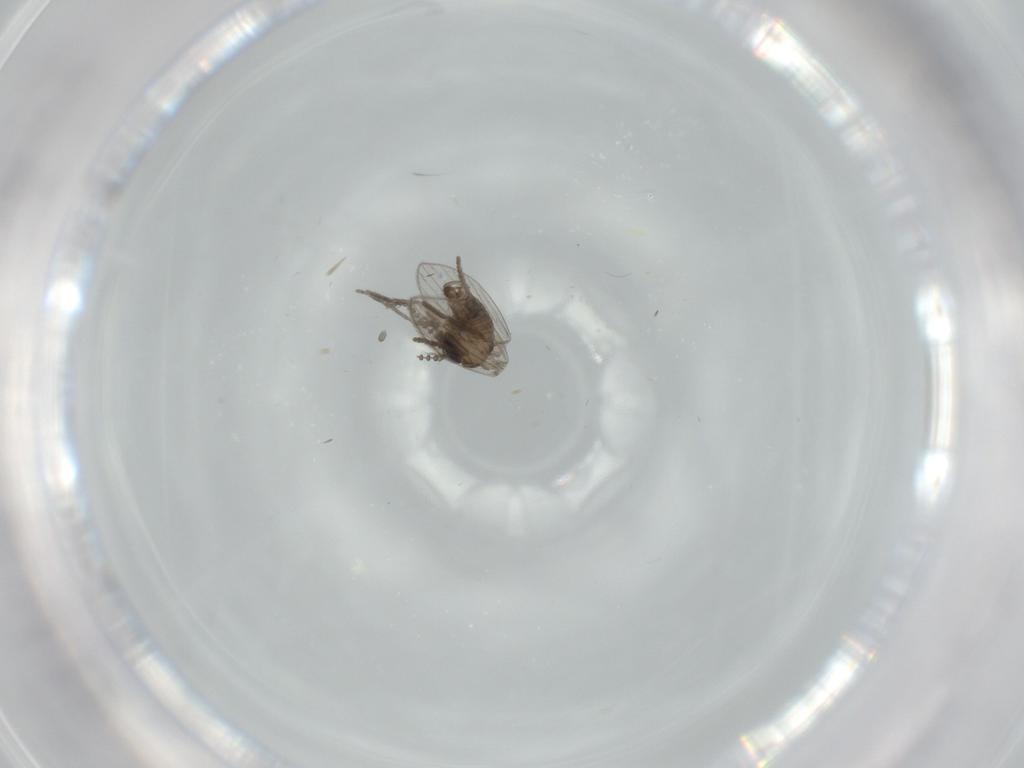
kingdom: Animalia
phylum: Arthropoda
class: Insecta
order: Diptera
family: Psychodidae
